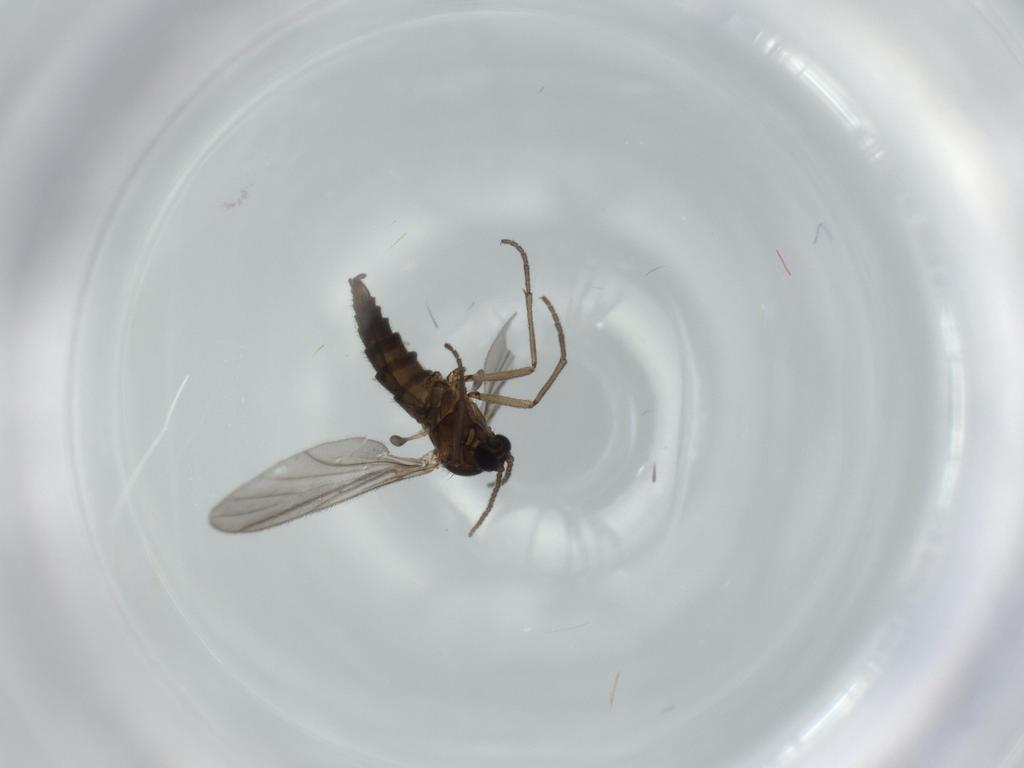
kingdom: Animalia
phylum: Arthropoda
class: Insecta
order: Diptera
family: Sciaridae
